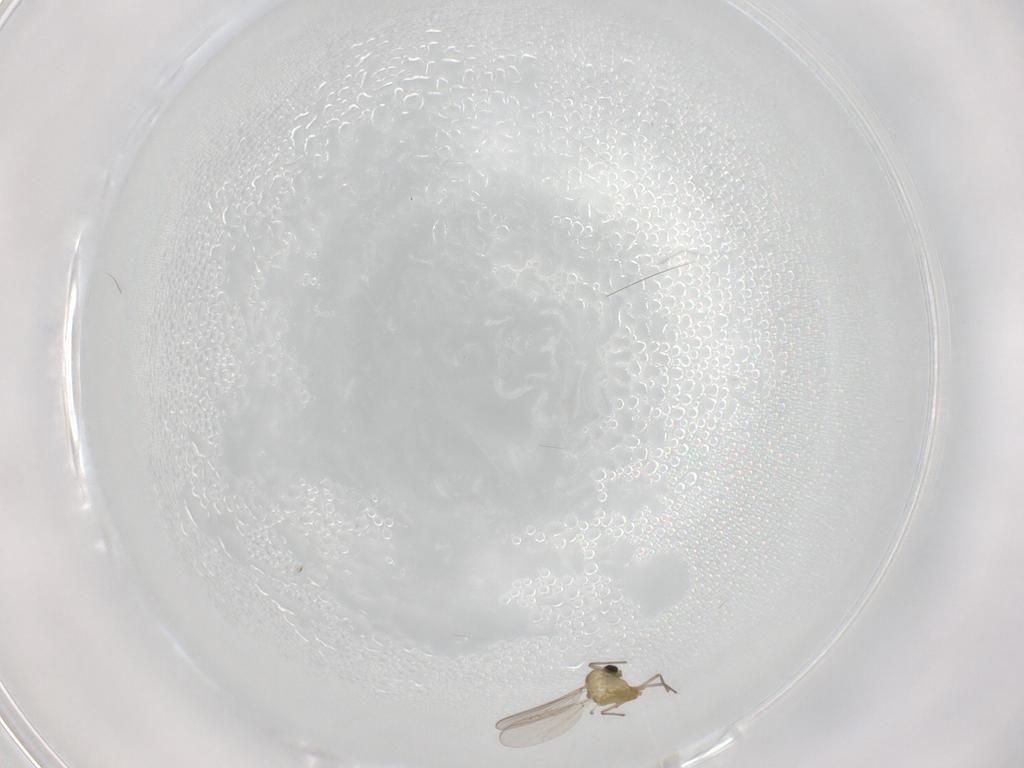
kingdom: Animalia
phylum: Arthropoda
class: Insecta
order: Diptera
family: Chironomidae
